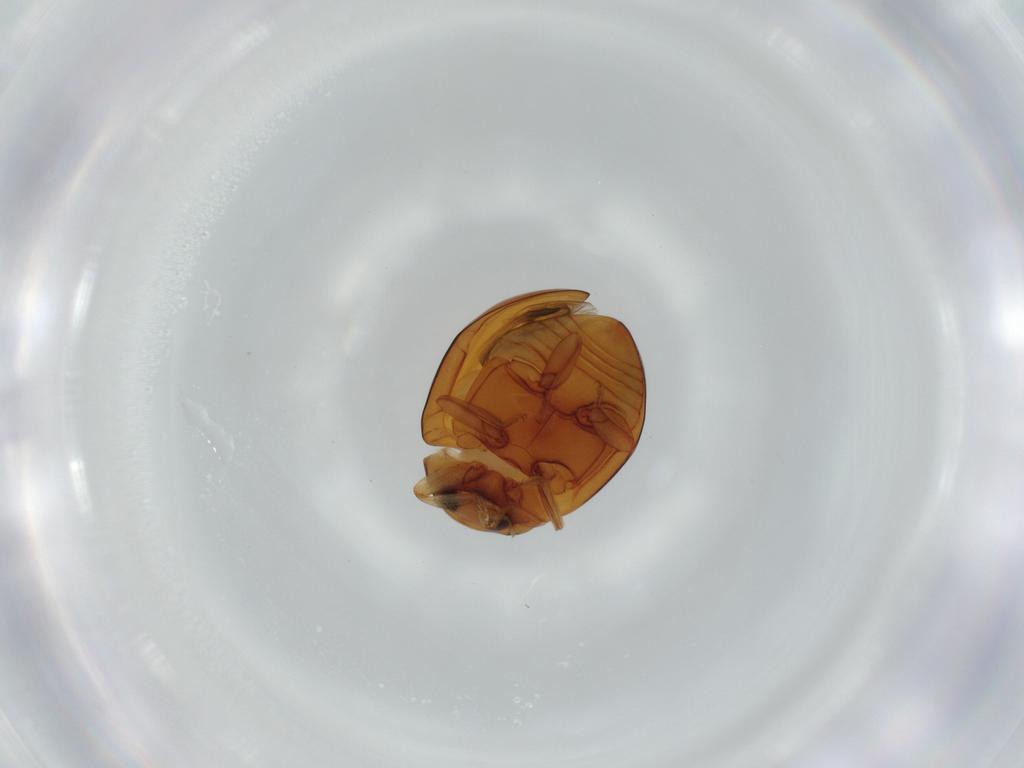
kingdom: Animalia
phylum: Arthropoda
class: Insecta
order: Coleoptera
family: Coccinellidae
